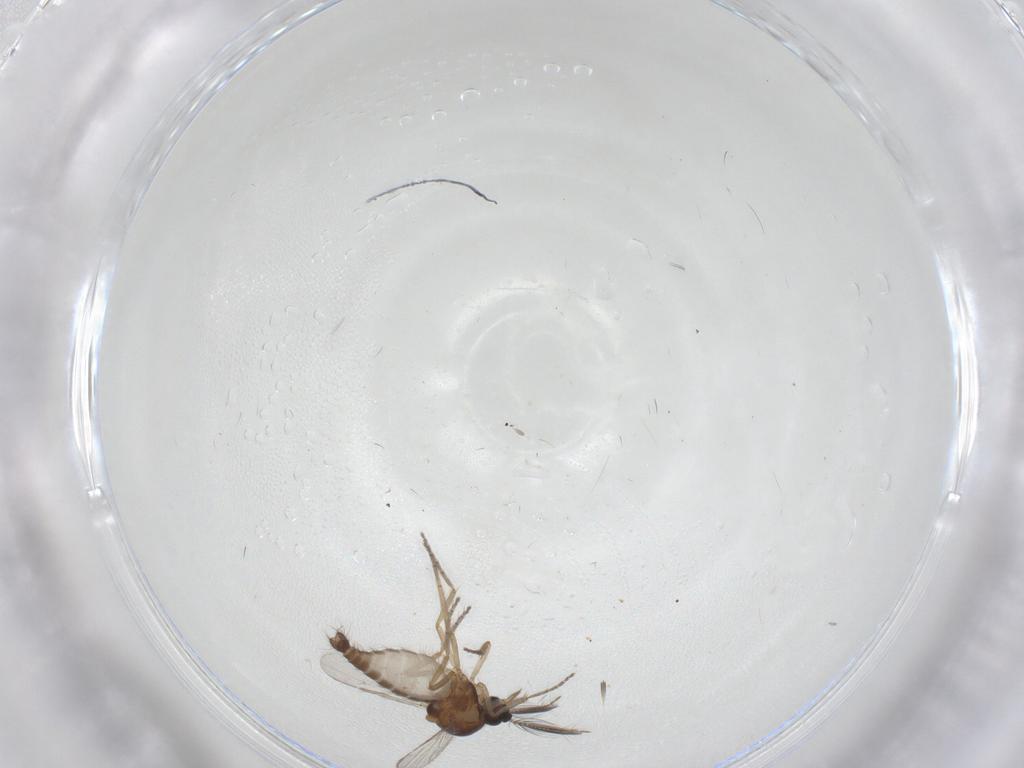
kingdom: Animalia
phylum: Arthropoda
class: Insecta
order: Diptera
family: Ceratopogonidae
